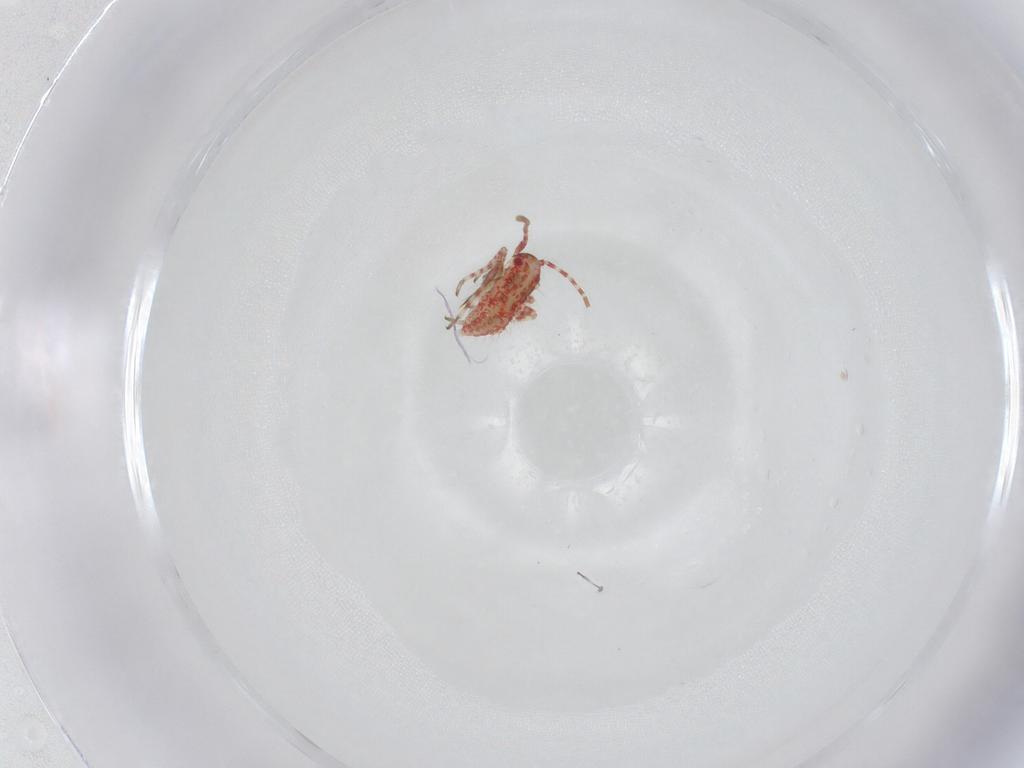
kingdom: Animalia
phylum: Arthropoda
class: Insecta
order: Hemiptera
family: Miridae
